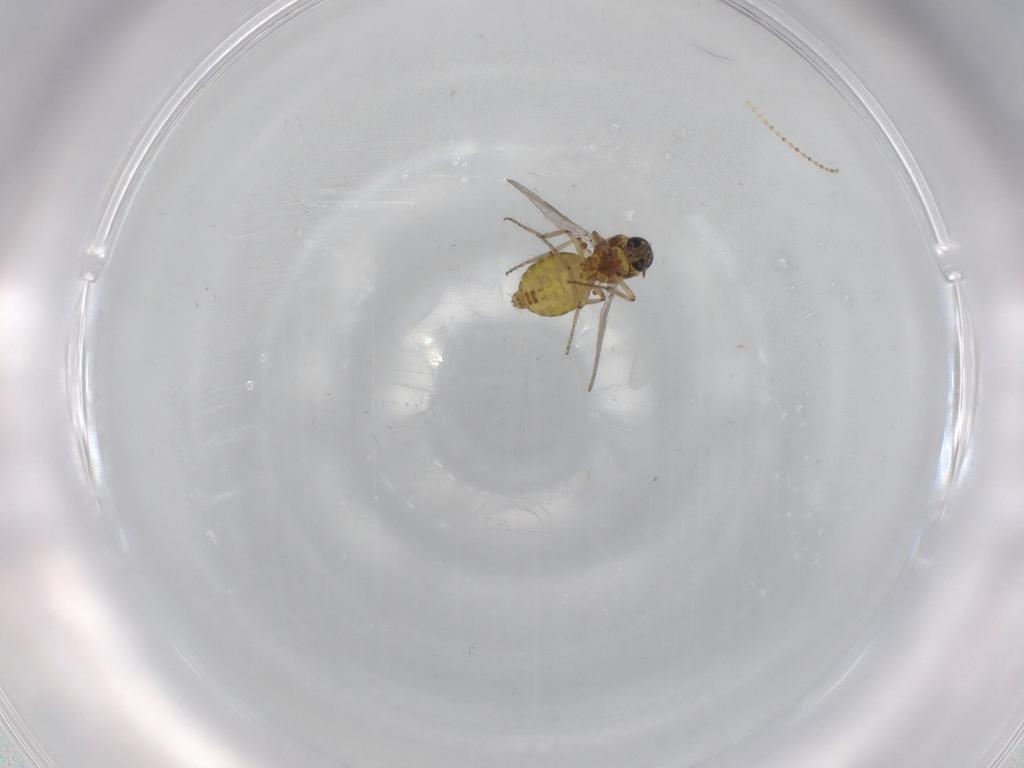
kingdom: Animalia
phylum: Arthropoda
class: Insecta
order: Diptera
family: Ceratopogonidae
